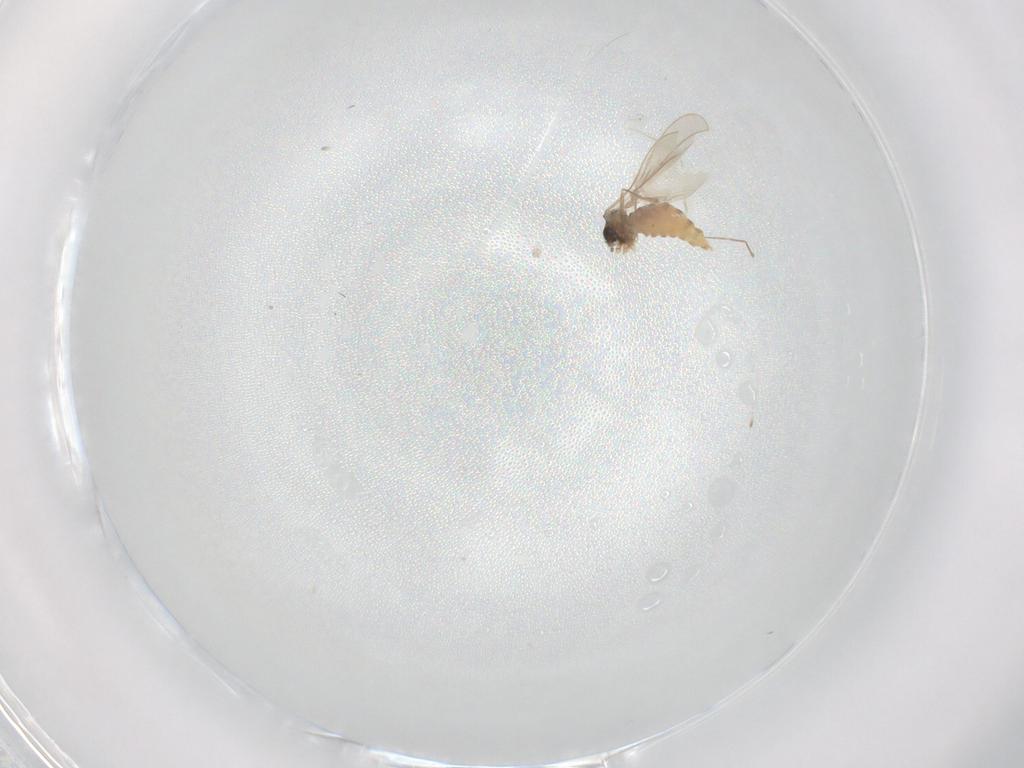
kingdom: Animalia
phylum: Arthropoda
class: Insecta
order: Diptera
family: Cecidomyiidae
